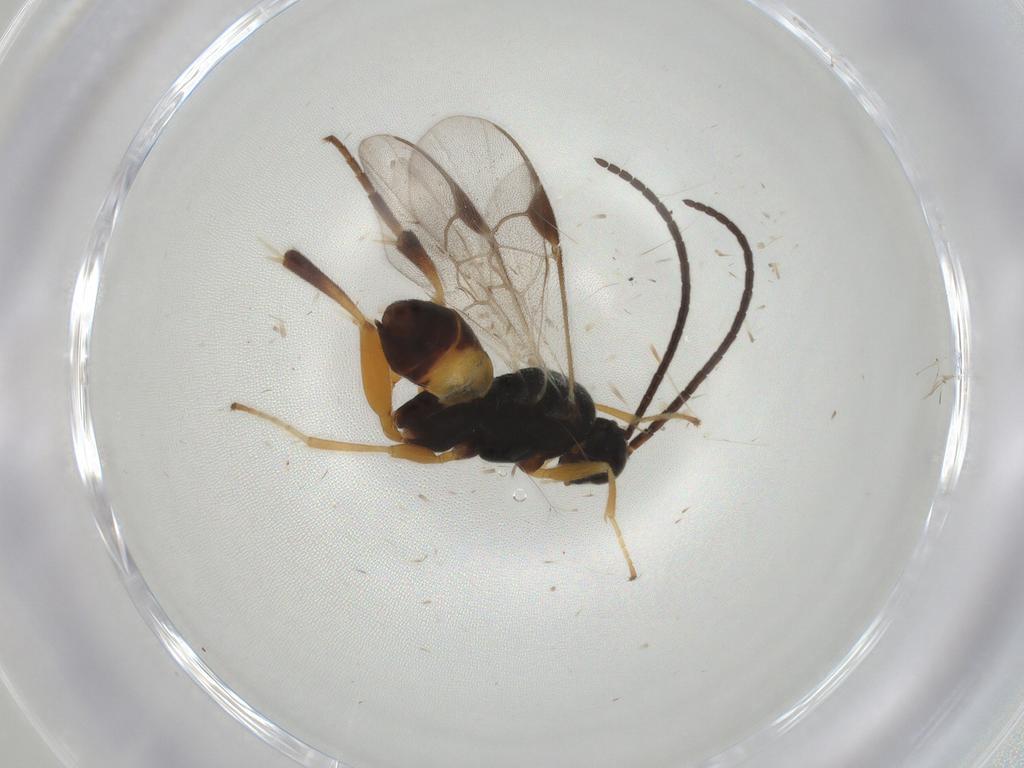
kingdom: Animalia
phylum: Arthropoda
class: Insecta
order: Hymenoptera
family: Braconidae
